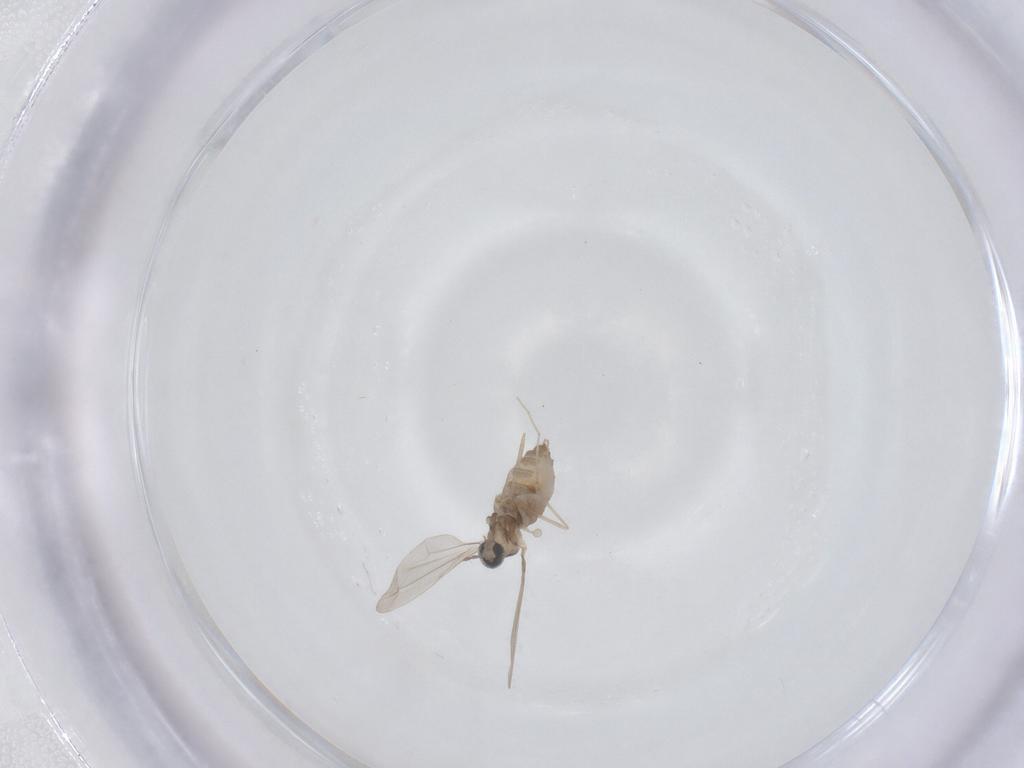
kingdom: Animalia
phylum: Arthropoda
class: Insecta
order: Diptera
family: Cecidomyiidae
